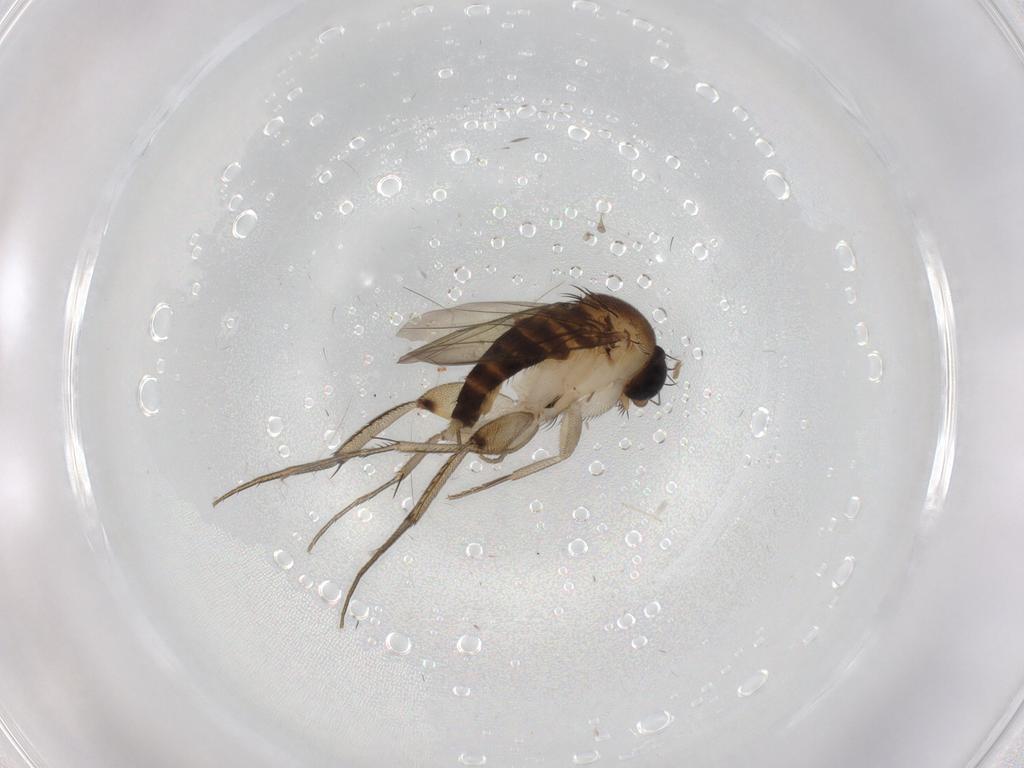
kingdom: Animalia
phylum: Arthropoda
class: Insecta
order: Diptera
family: Phoridae
